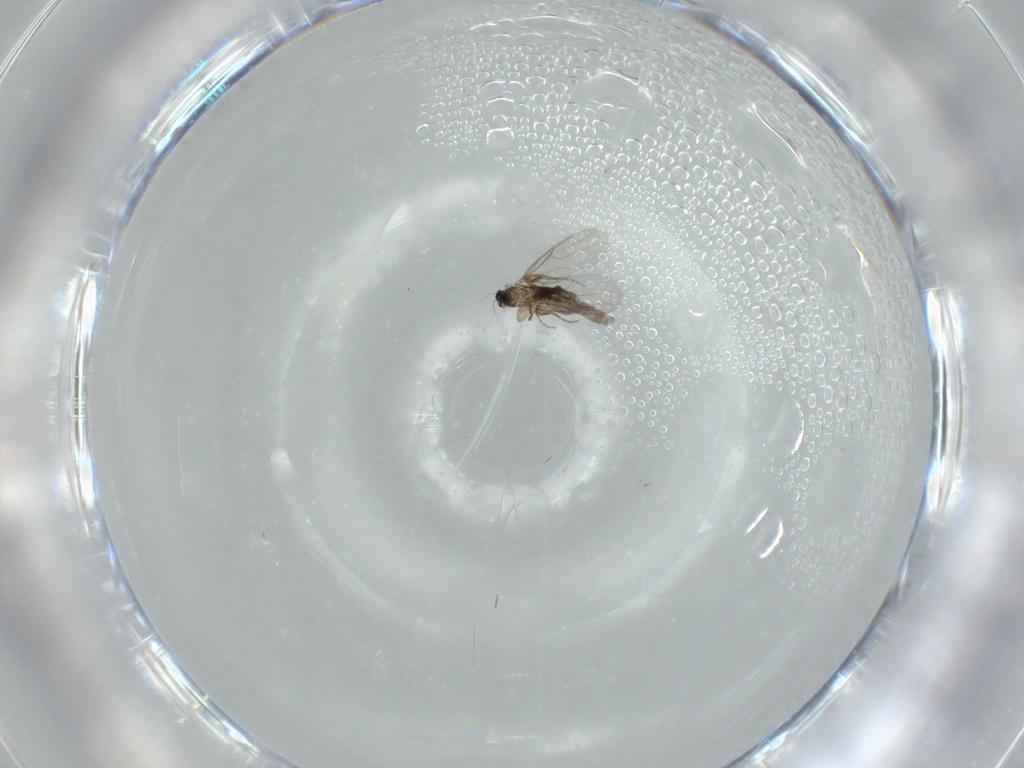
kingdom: Animalia
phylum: Arthropoda
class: Insecta
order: Diptera
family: Phoridae
